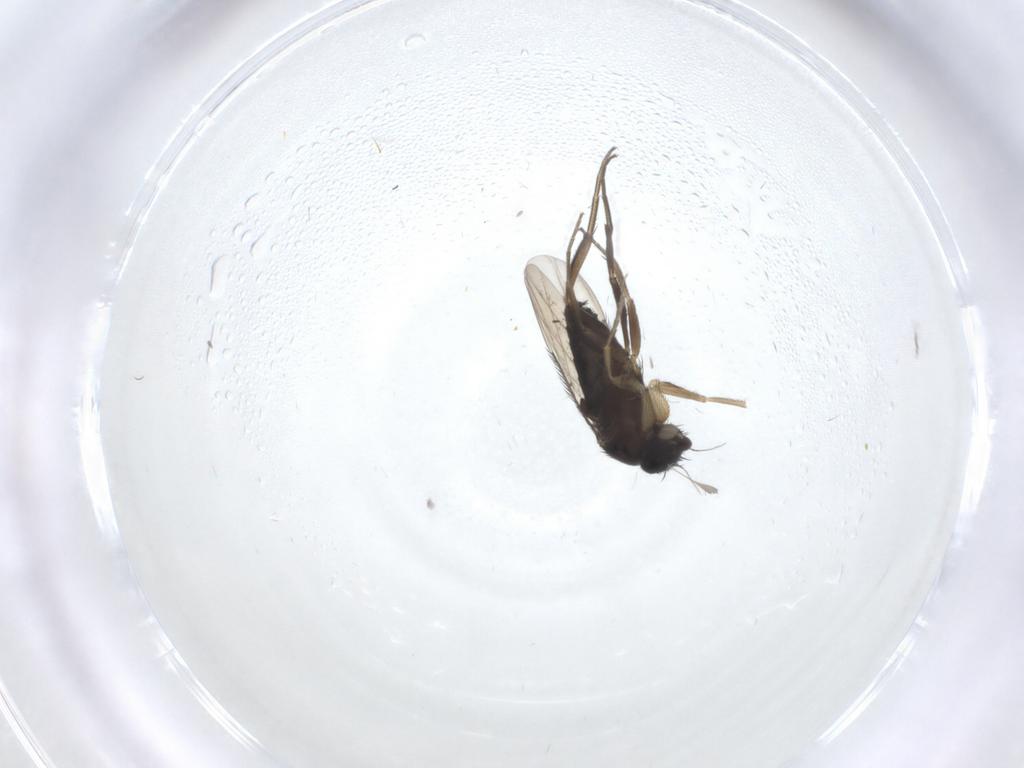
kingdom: Animalia
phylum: Arthropoda
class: Insecta
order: Diptera
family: Phoridae
